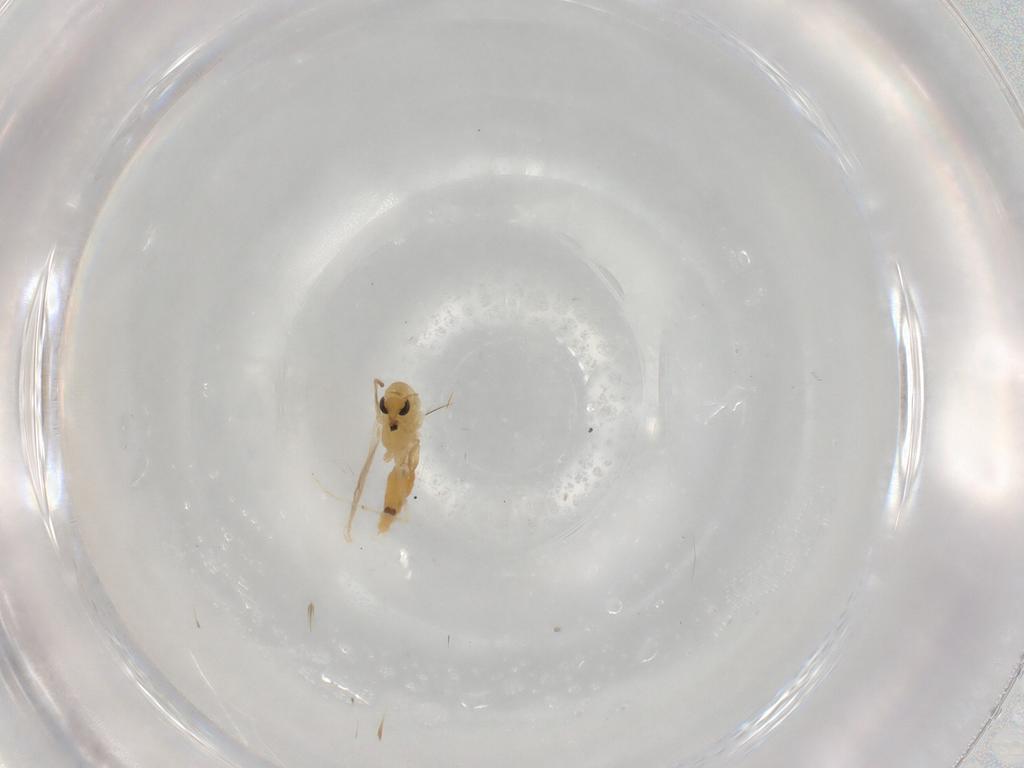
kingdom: Animalia
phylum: Arthropoda
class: Insecta
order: Diptera
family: Chironomidae
